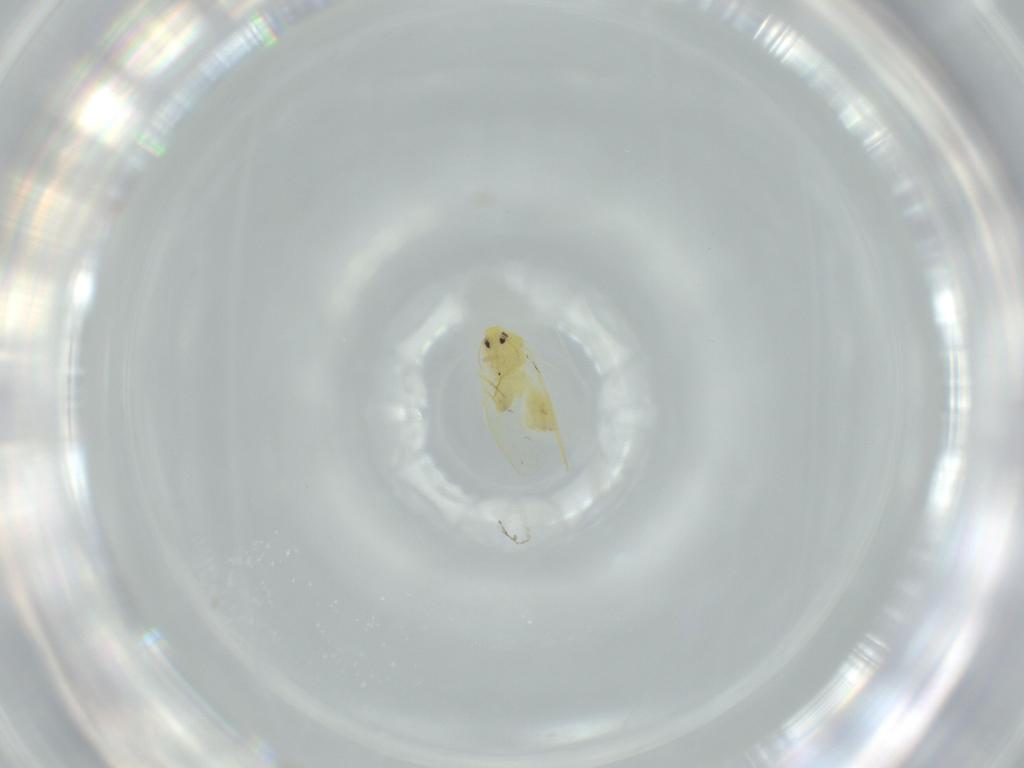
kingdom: Animalia
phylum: Arthropoda
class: Insecta
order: Hemiptera
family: Aleyrodidae
